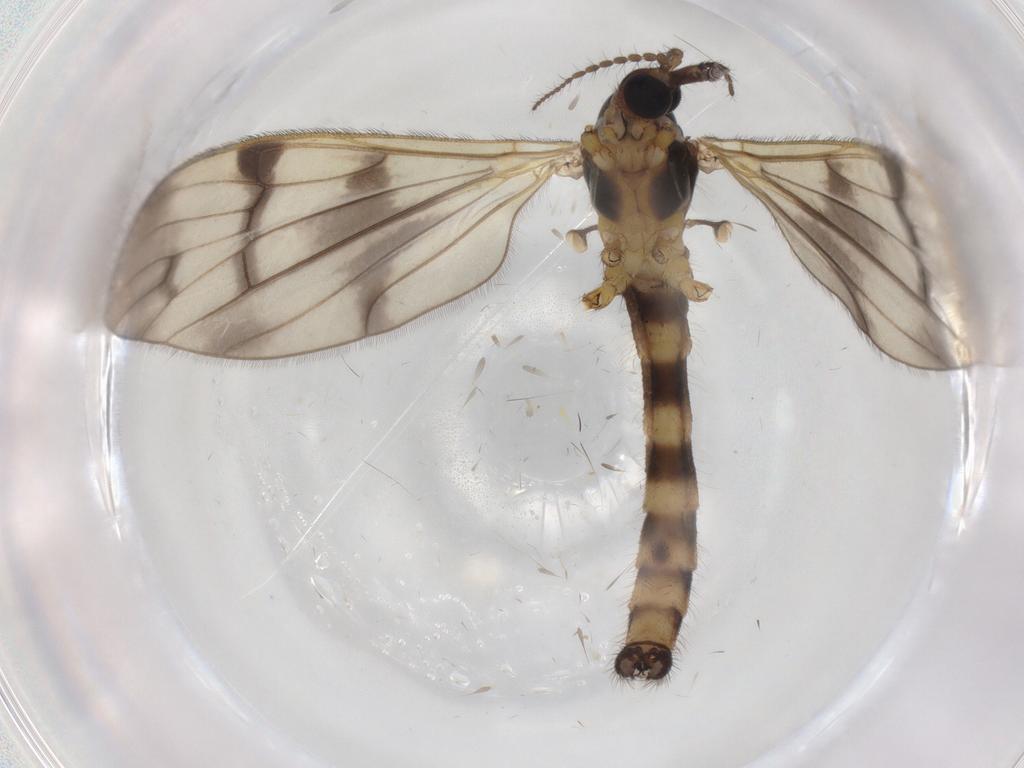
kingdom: Animalia
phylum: Arthropoda
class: Insecta
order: Diptera
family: Limoniidae
